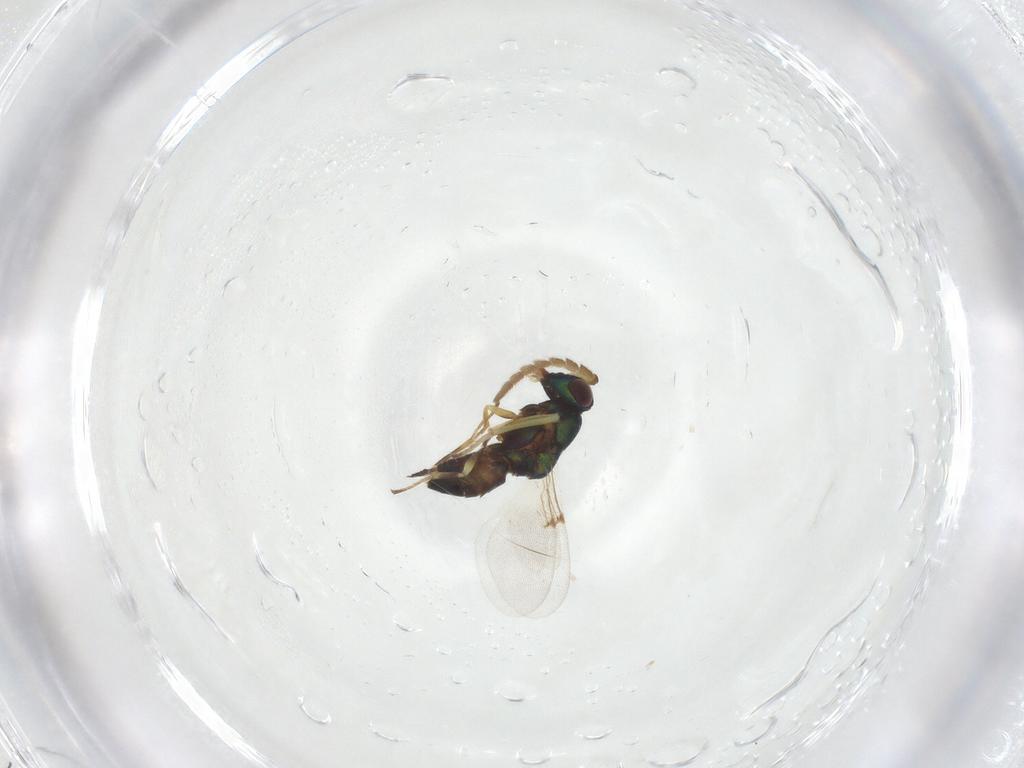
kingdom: Animalia
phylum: Arthropoda
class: Insecta
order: Hymenoptera
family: Encyrtidae
